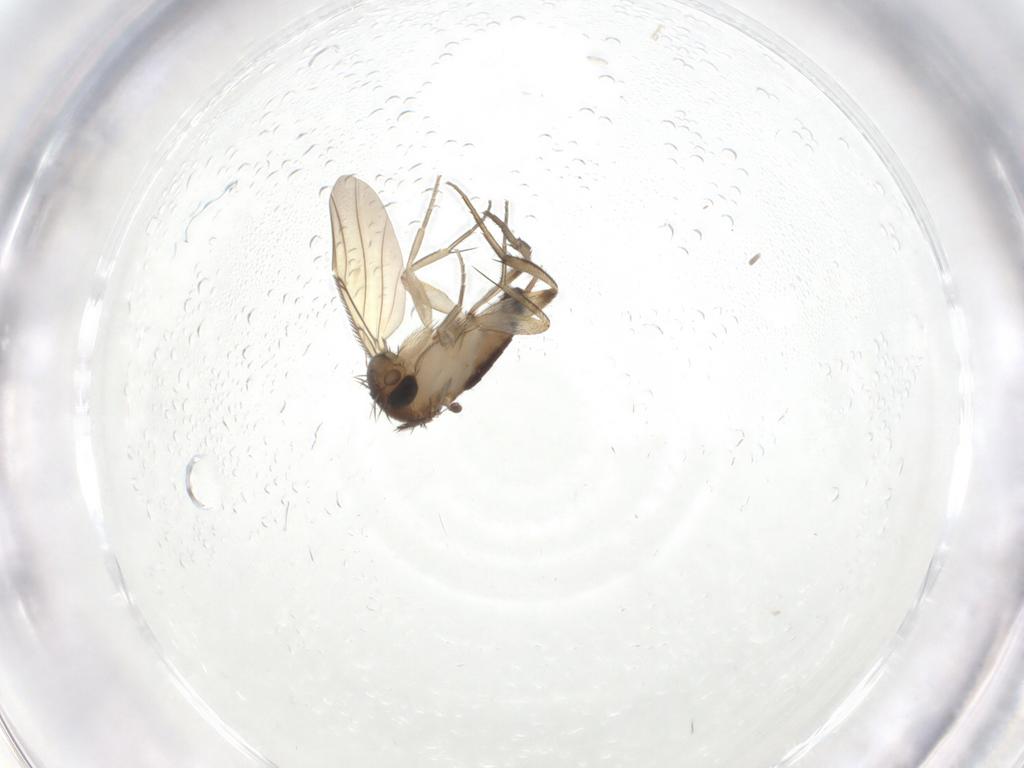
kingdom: Animalia
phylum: Arthropoda
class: Insecta
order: Diptera
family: Phoridae
